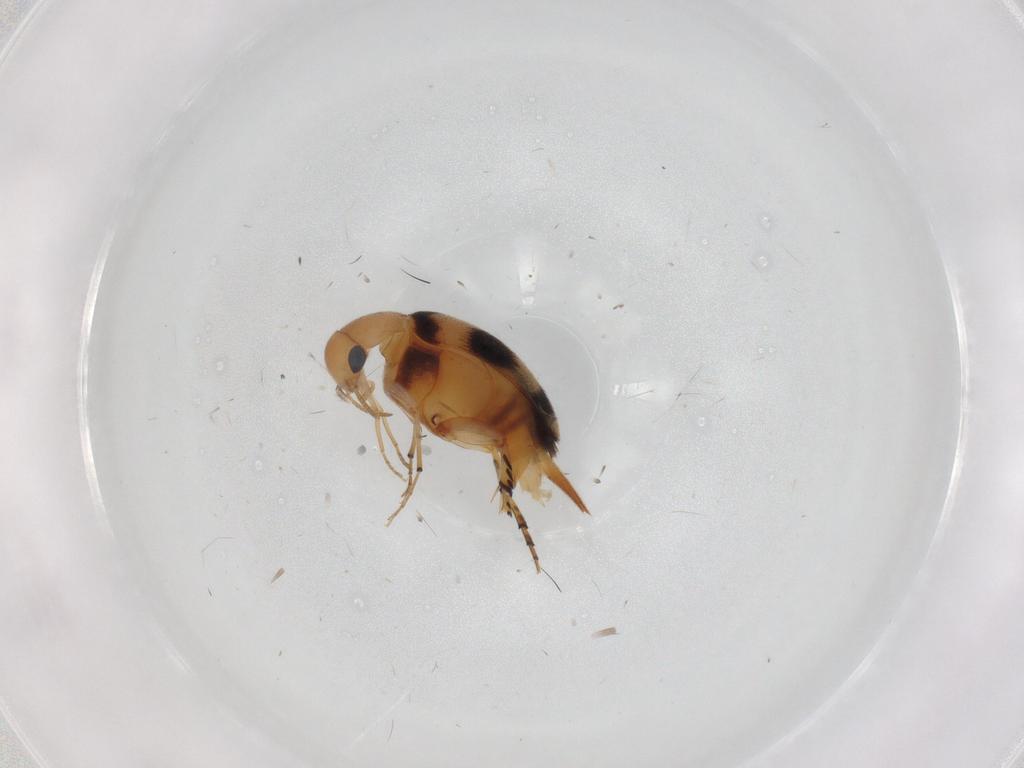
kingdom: Animalia
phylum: Arthropoda
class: Insecta
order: Coleoptera
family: Mordellidae
